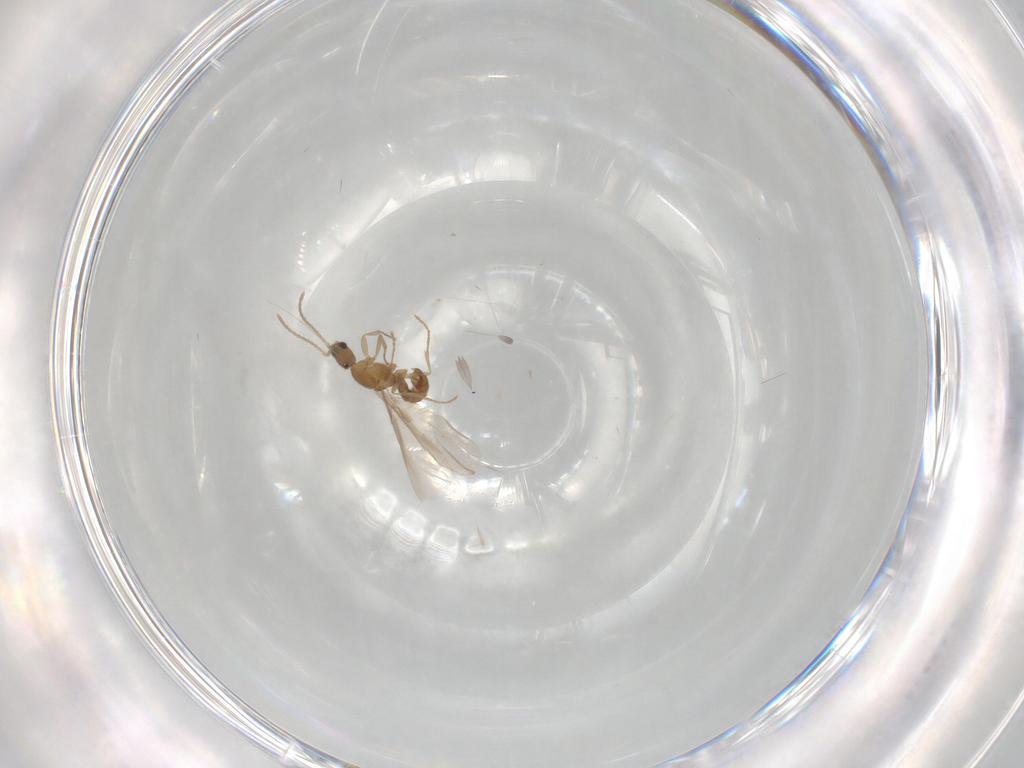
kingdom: Animalia
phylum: Arthropoda
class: Insecta
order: Hymenoptera
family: Formicidae
